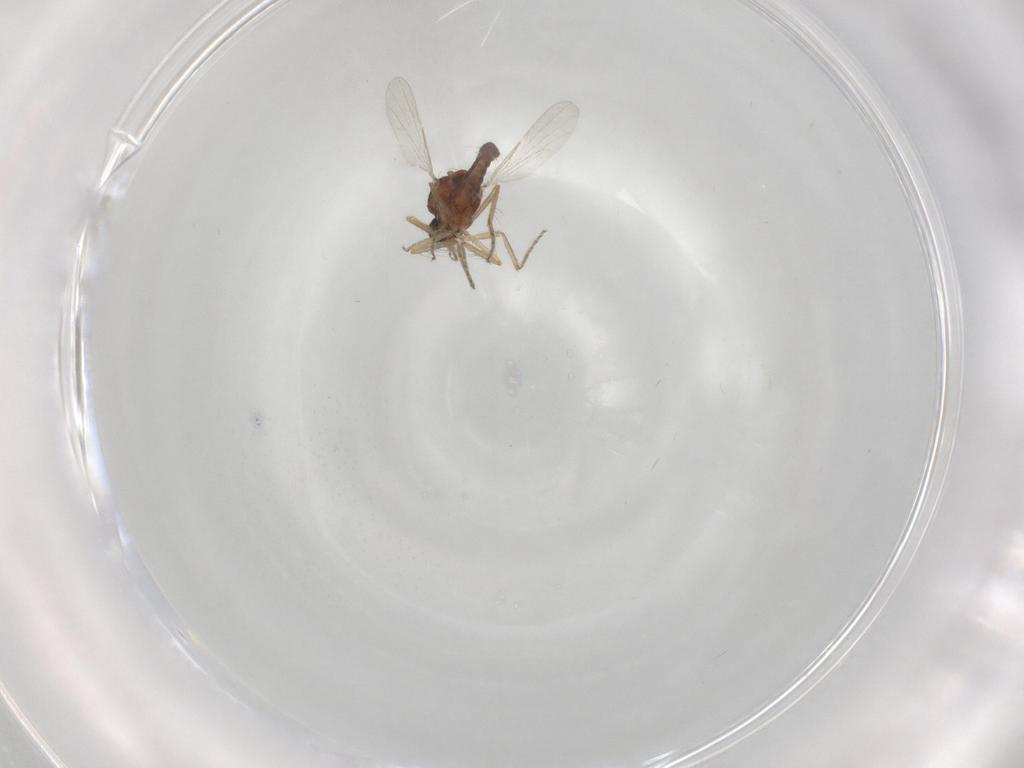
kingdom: Animalia
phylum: Arthropoda
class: Insecta
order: Diptera
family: Ceratopogonidae
